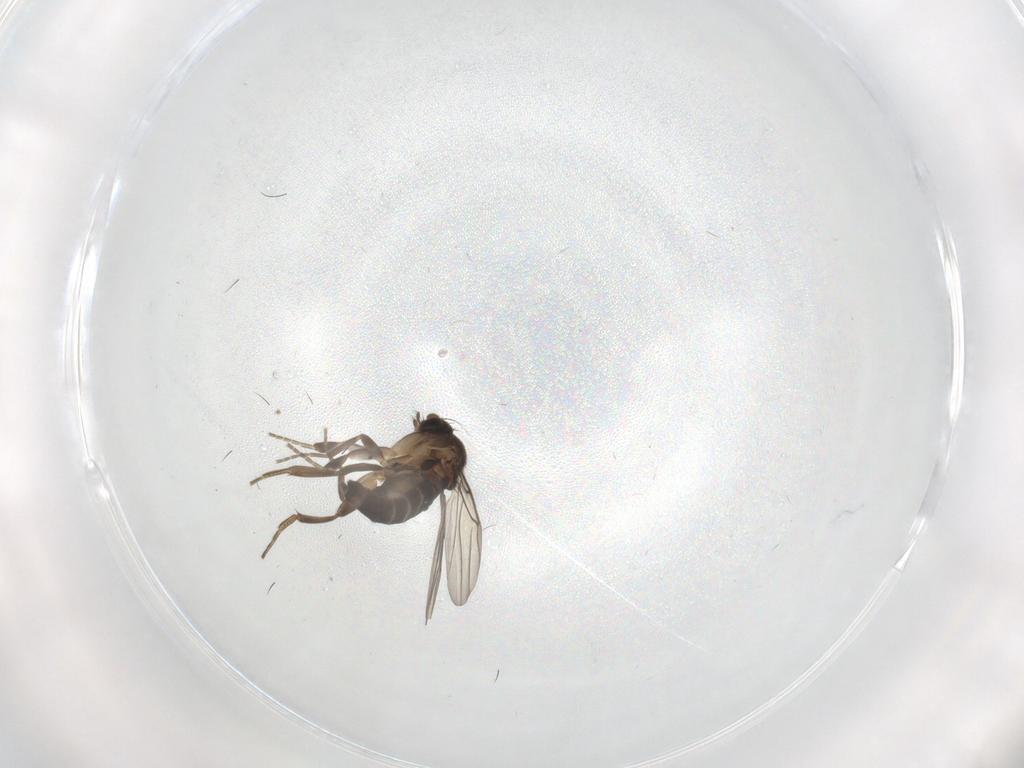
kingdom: Animalia
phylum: Arthropoda
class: Insecta
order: Diptera
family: Phoridae
